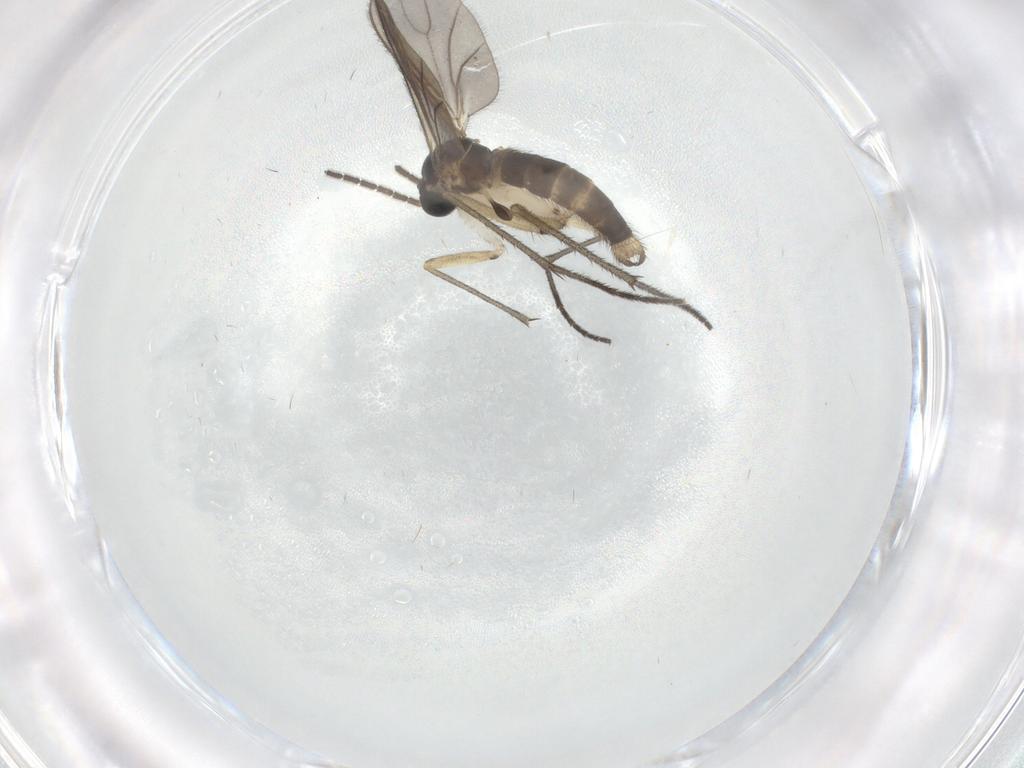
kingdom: Animalia
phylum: Arthropoda
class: Insecta
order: Diptera
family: Sciaridae
